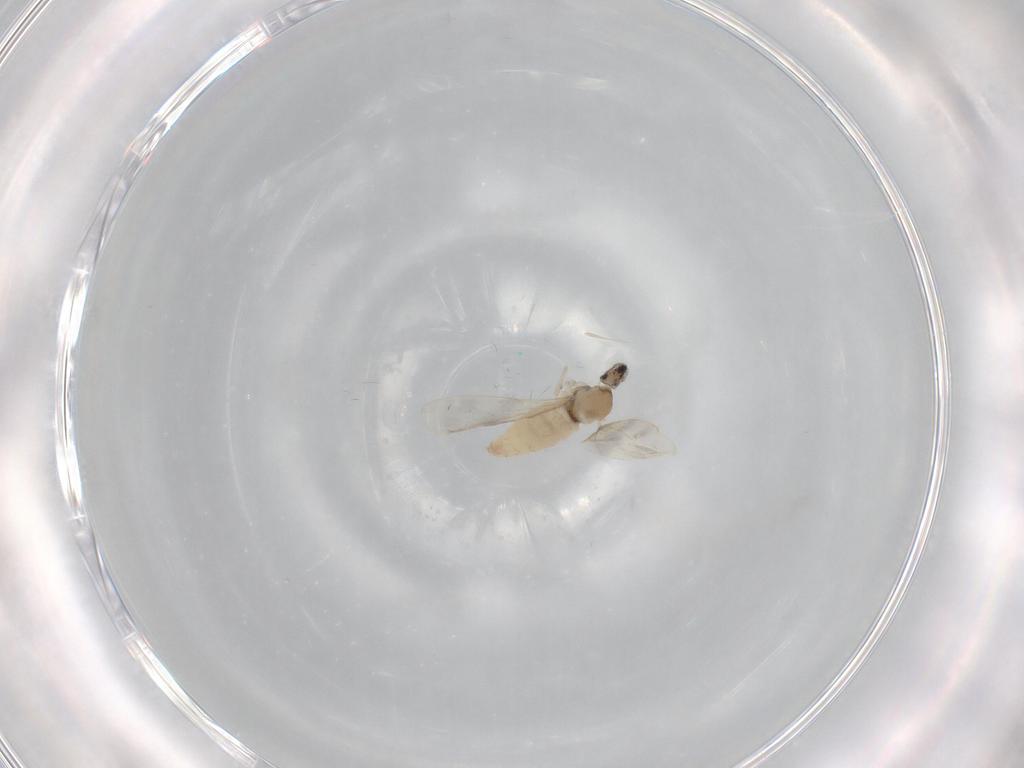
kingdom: Animalia
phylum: Arthropoda
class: Insecta
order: Diptera
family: Cecidomyiidae
